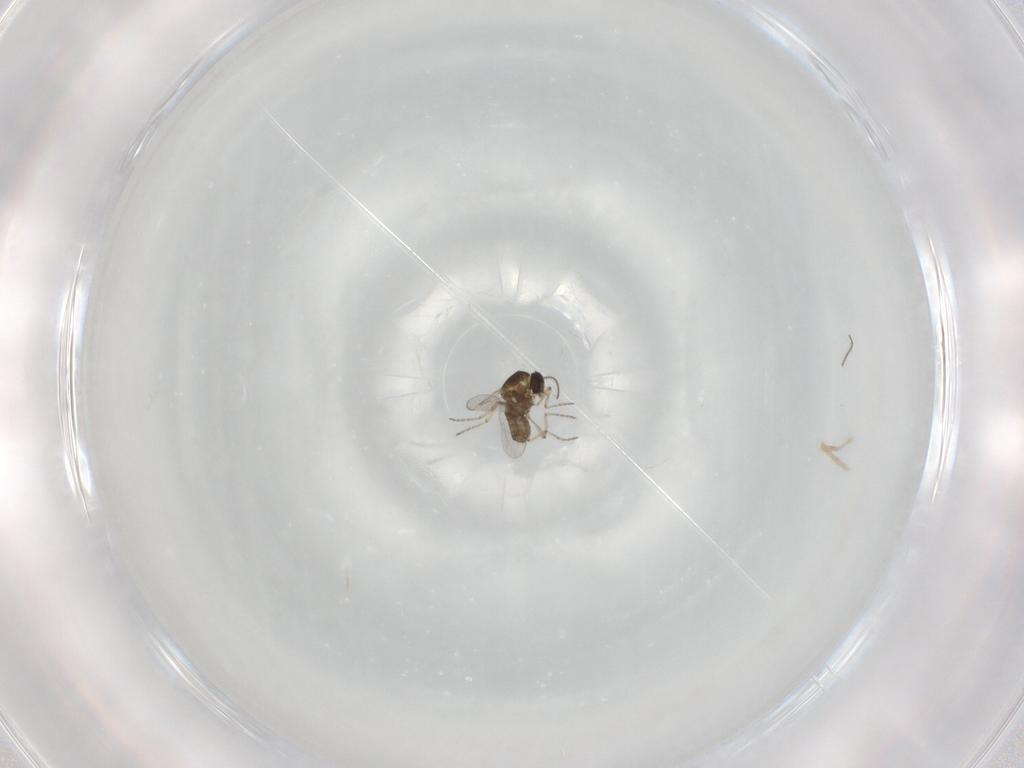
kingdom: Animalia
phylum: Arthropoda
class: Insecta
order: Diptera
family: Ceratopogonidae
